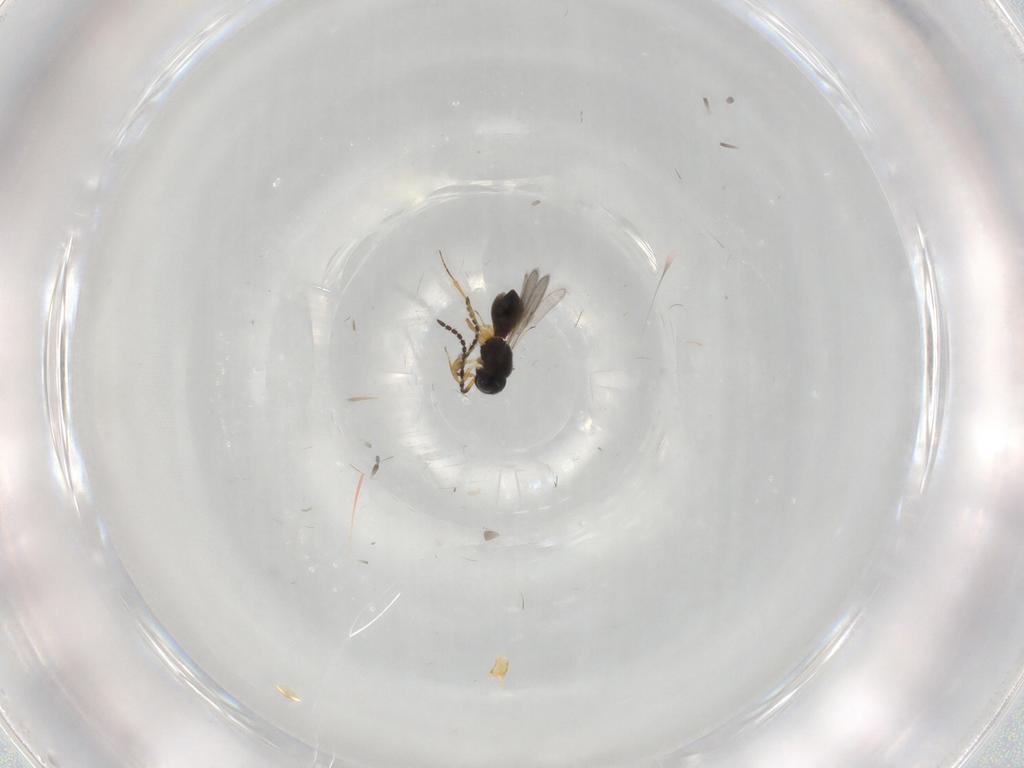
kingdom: Animalia
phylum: Arthropoda
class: Insecta
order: Hymenoptera
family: Scelionidae
